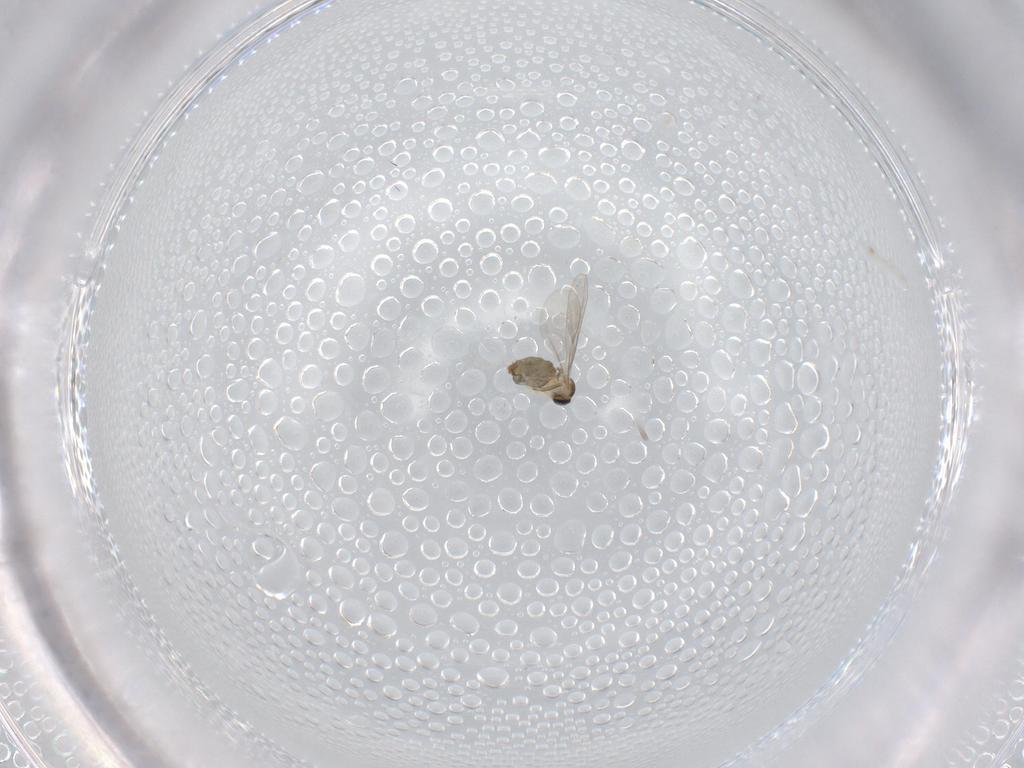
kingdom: Animalia
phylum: Arthropoda
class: Insecta
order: Diptera
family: Cecidomyiidae
